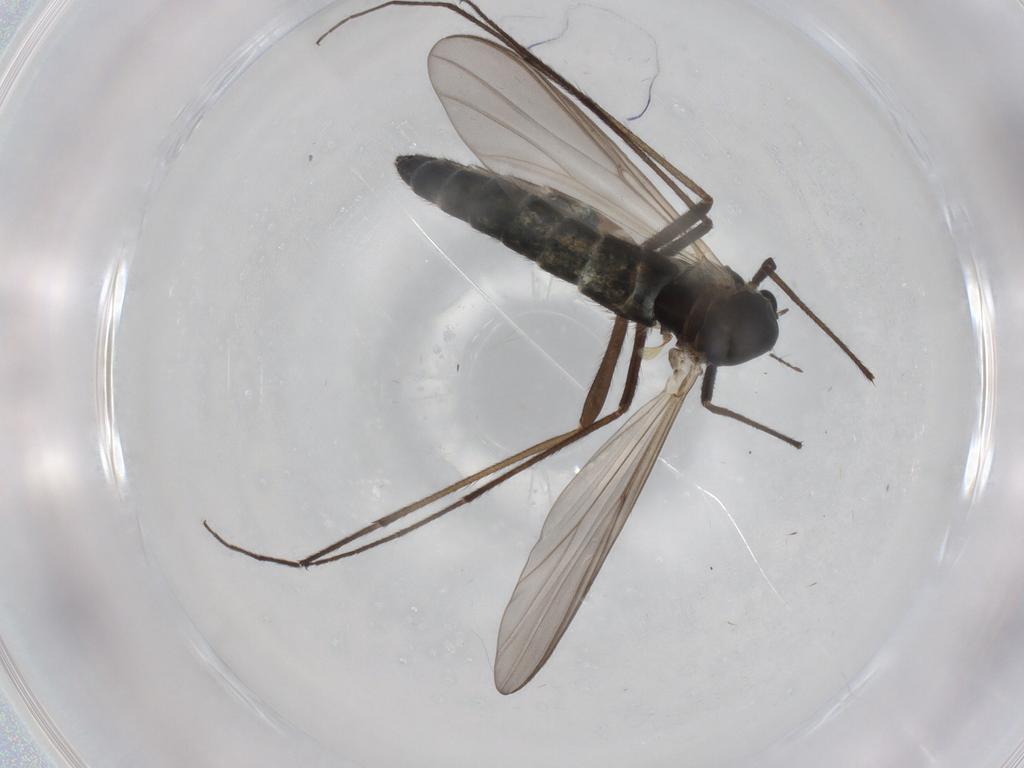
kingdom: Animalia
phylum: Arthropoda
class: Insecta
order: Diptera
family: Chironomidae
